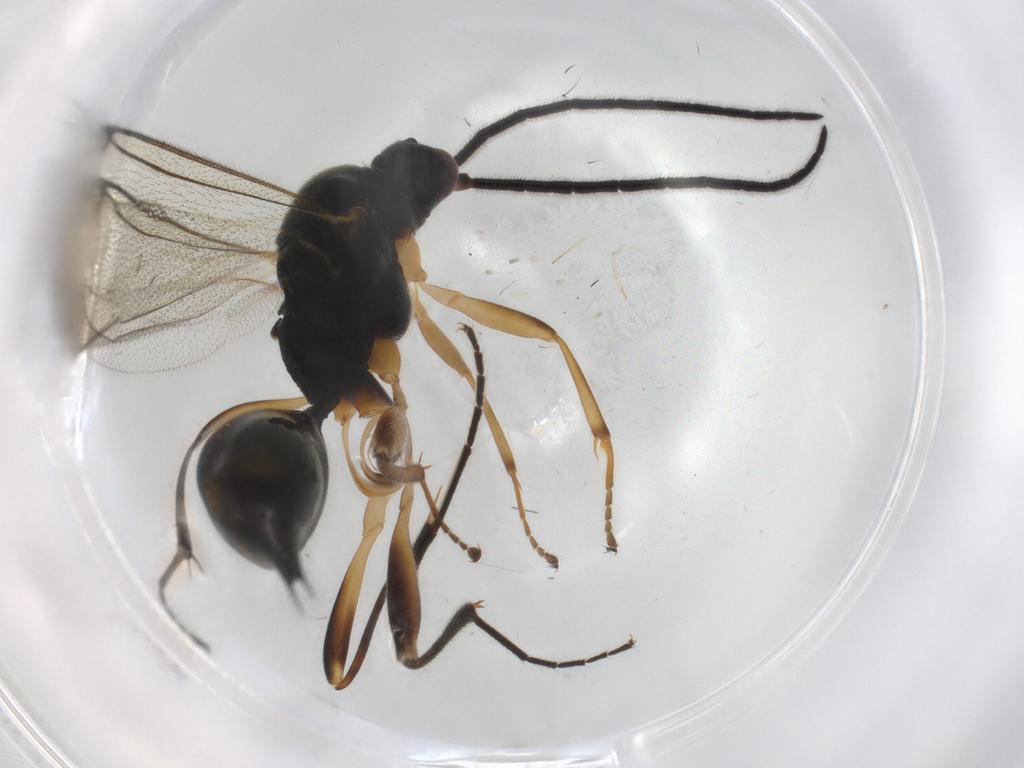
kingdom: Animalia
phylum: Arthropoda
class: Insecta
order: Hymenoptera
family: Proctotrupidae
